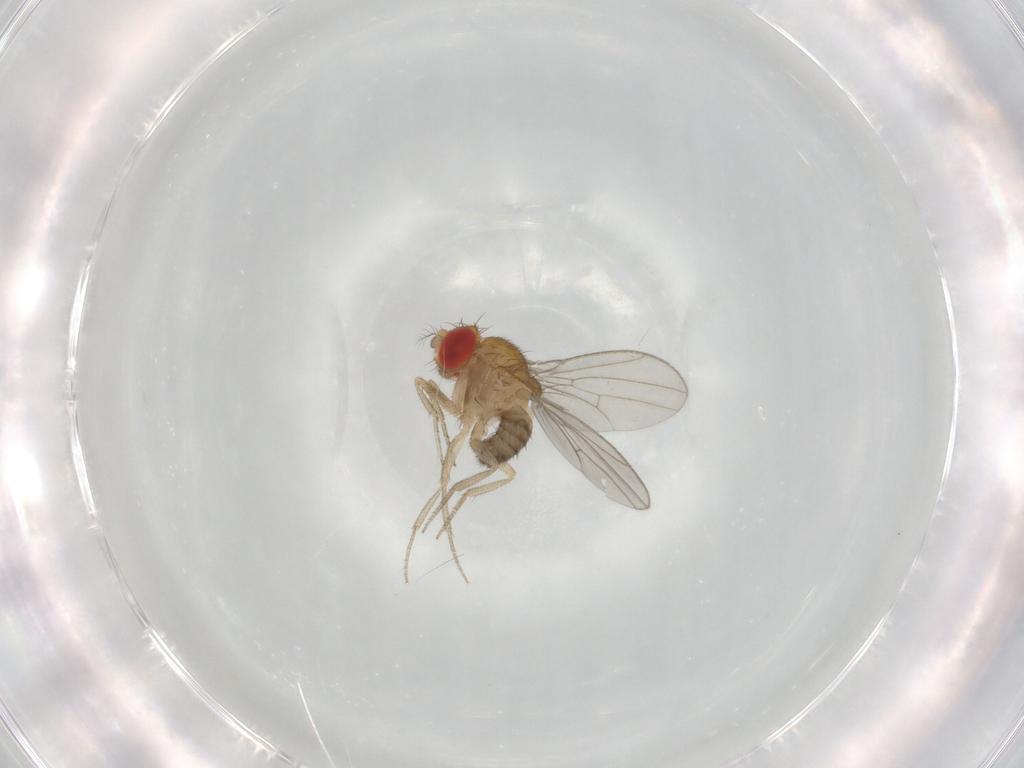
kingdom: Animalia
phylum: Arthropoda
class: Insecta
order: Diptera
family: Drosophilidae
